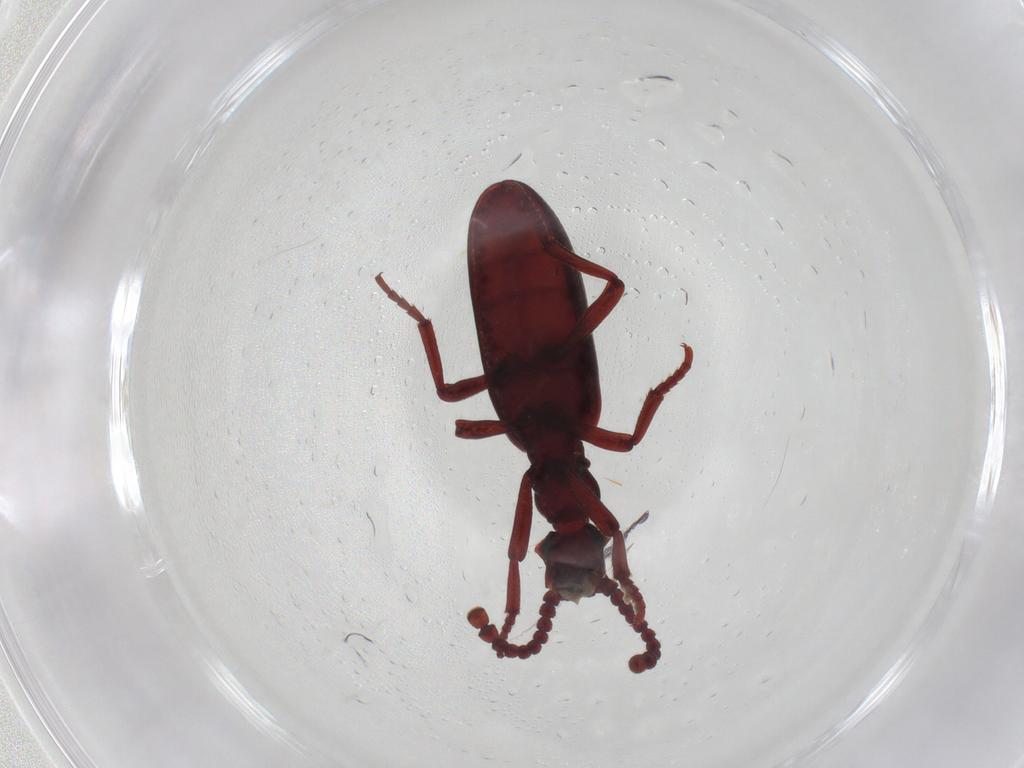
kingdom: Animalia
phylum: Arthropoda
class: Insecta
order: Coleoptera
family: Anthicidae
